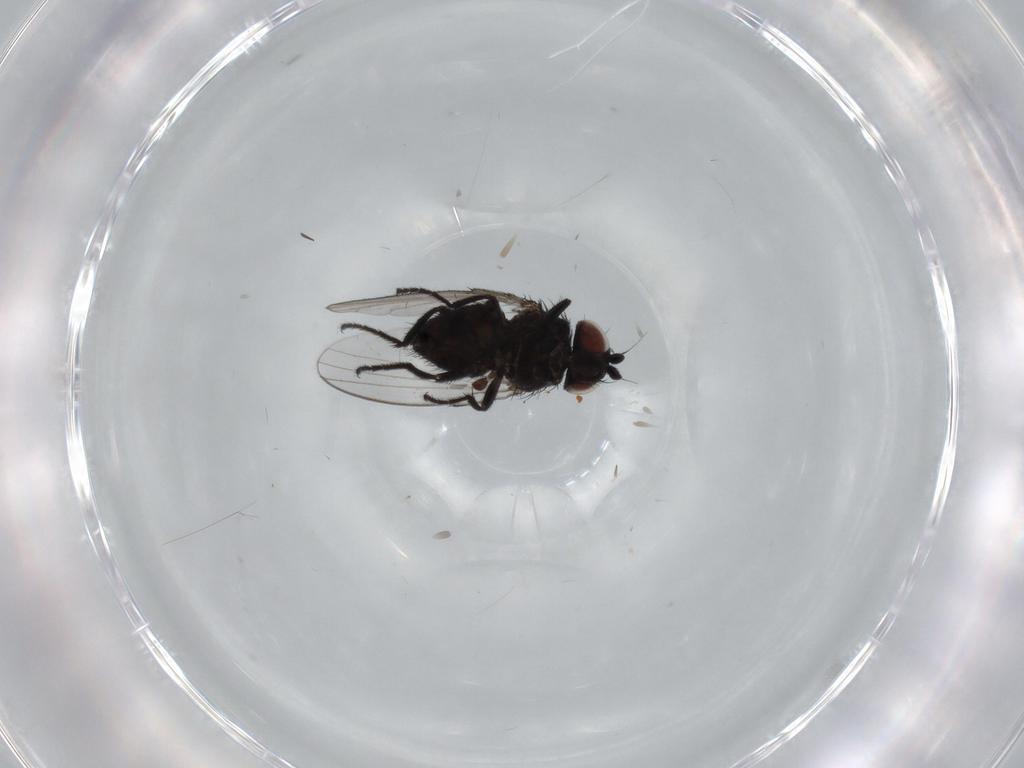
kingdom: Animalia
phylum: Arthropoda
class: Insecta
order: Diptera
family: Milichiidae
